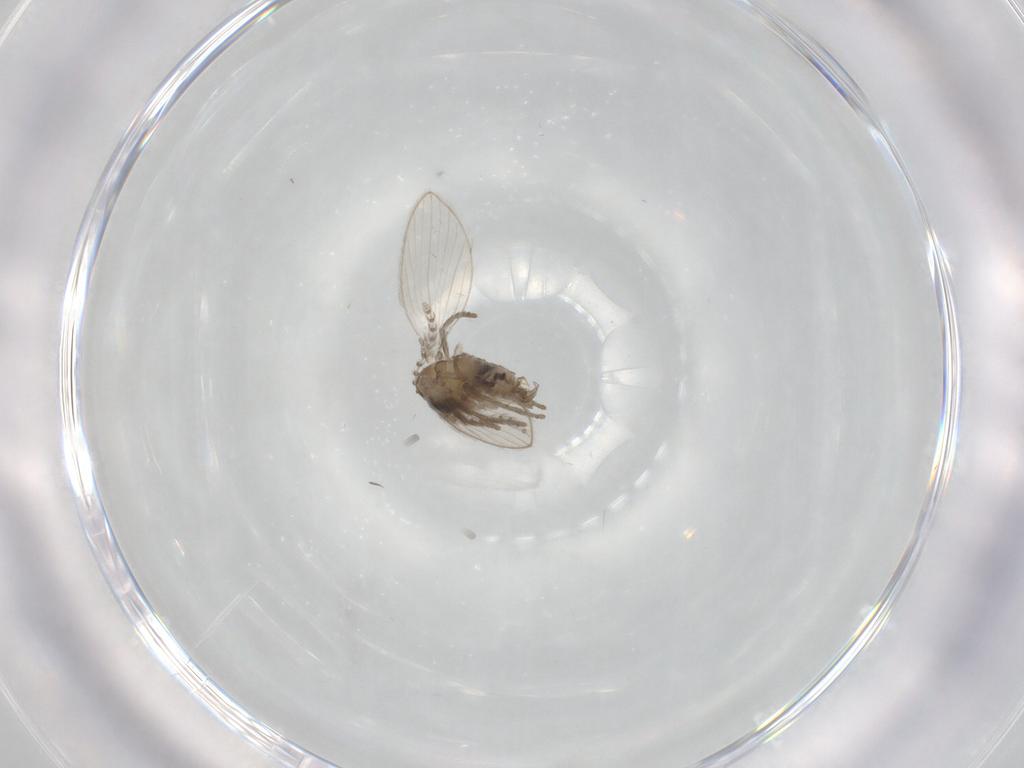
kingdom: Animalia
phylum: Arthropoda
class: Insecta
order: Diptera
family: Psychodidae
